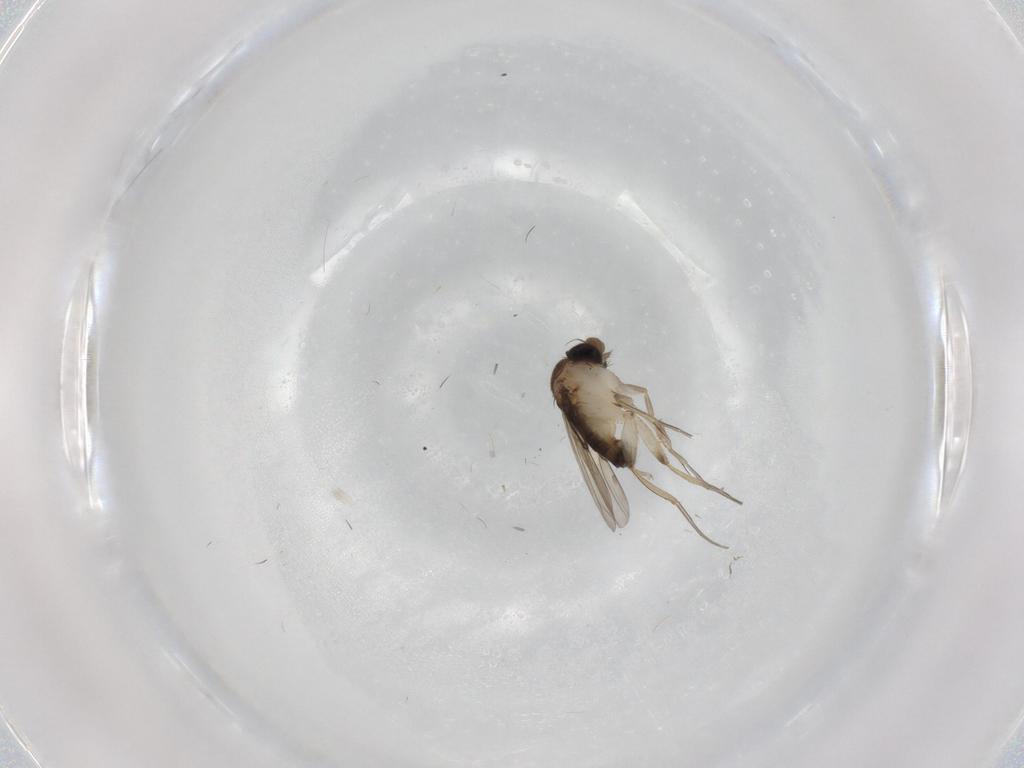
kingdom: Animalia
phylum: Arthropoda
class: Insecta
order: Diptera
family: Phoridae
